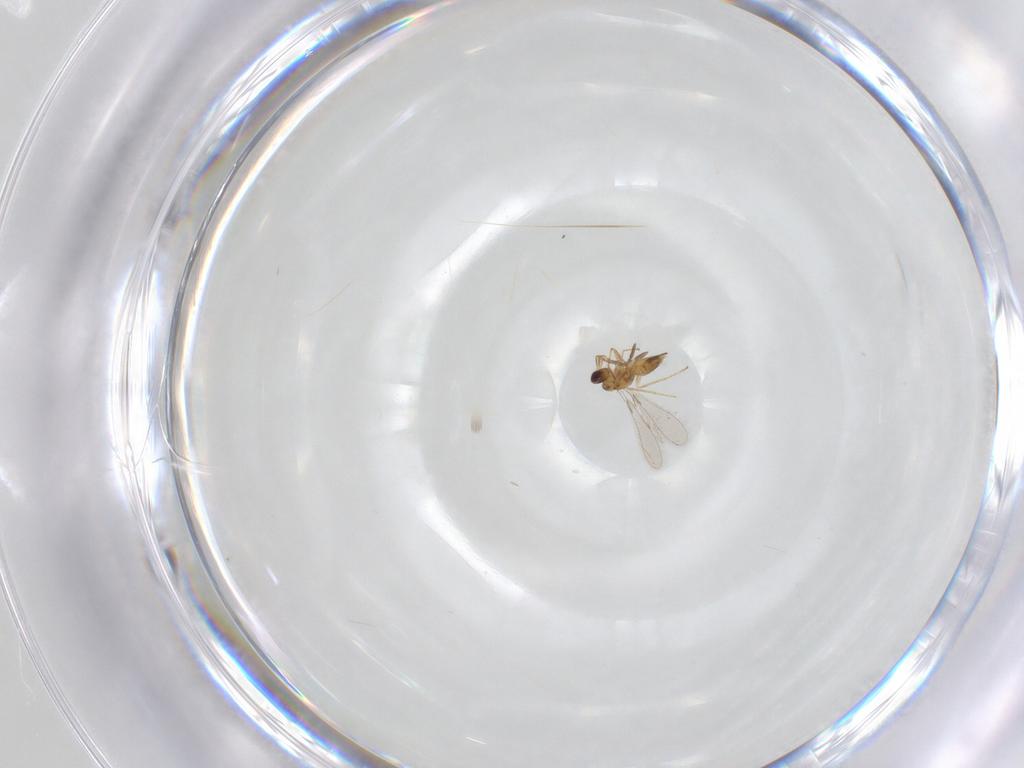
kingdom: Animalia
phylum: Arthropoda
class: Insecta
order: Hymenoptera
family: Mymaridae
